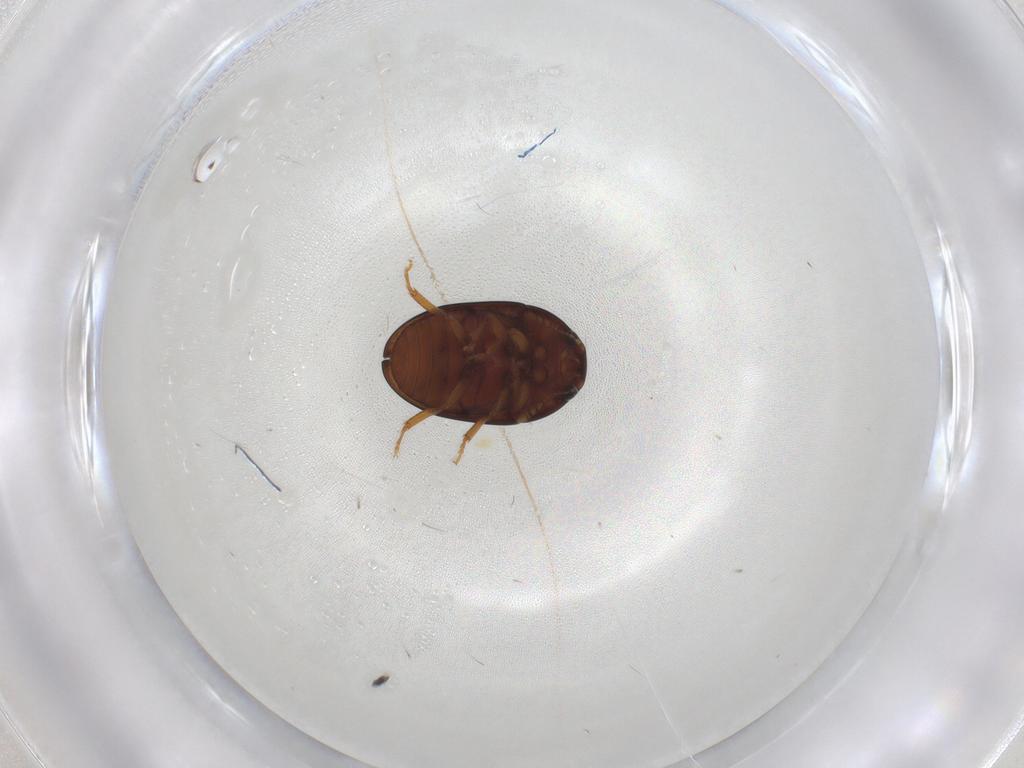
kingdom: Animalia
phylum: Arthropoda
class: Insecta
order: Coleoptera
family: Phalacridae
